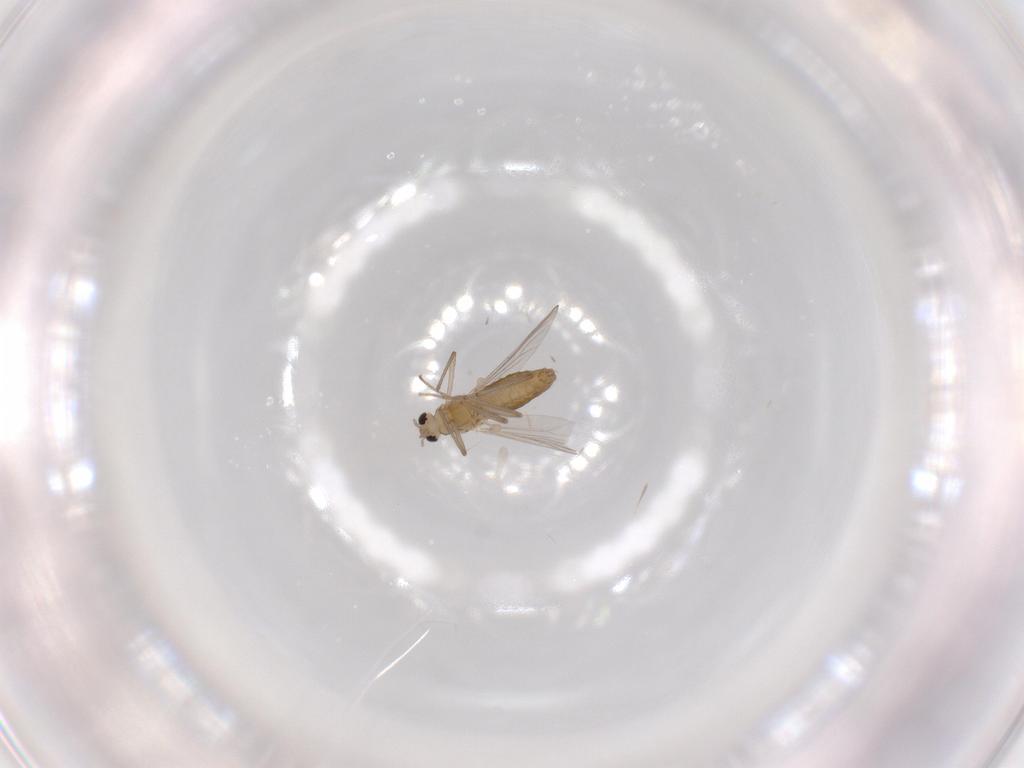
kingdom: Animalia
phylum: Arthropoda
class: Insecta
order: Diptera
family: Chironomidae
